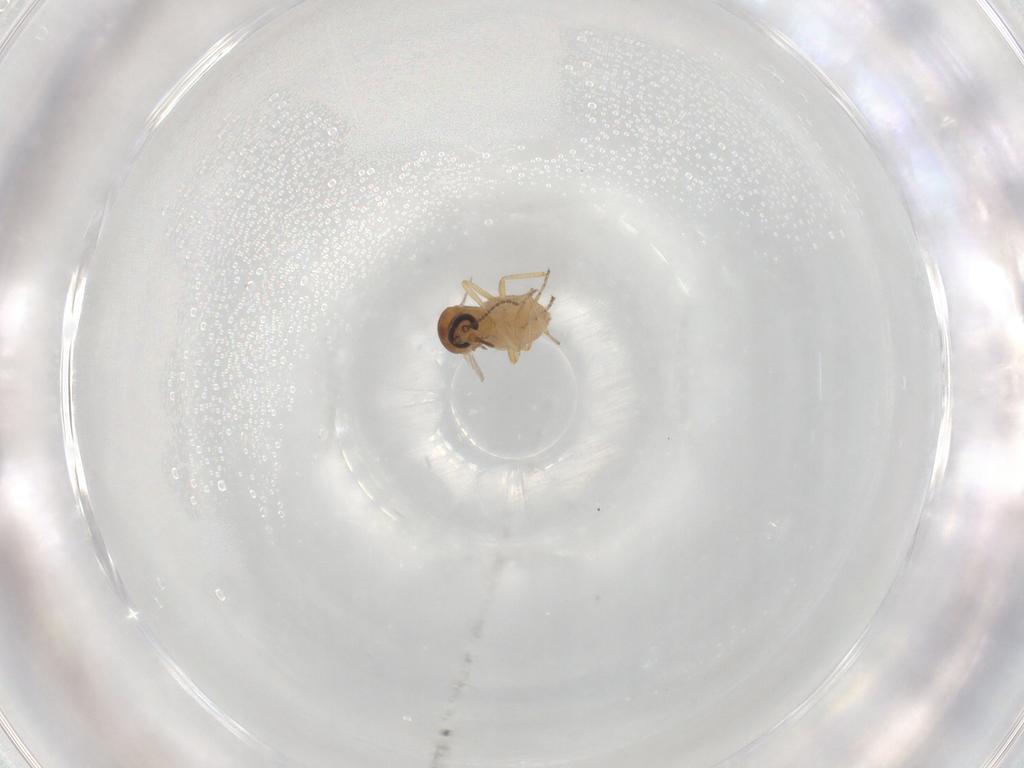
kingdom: Animalia
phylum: Arthropoda
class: Insecta
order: Diptera
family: Ceratopogonidae
